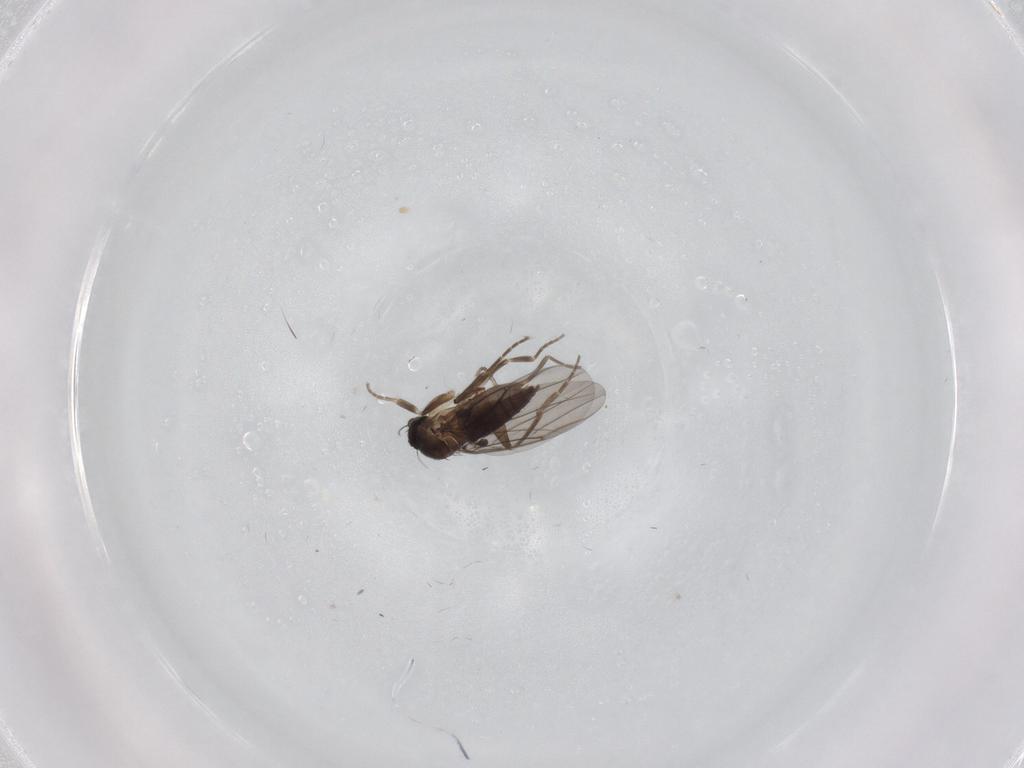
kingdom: Animalia
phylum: Arthropoda
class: Insecta
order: Diptera
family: Phoridae
